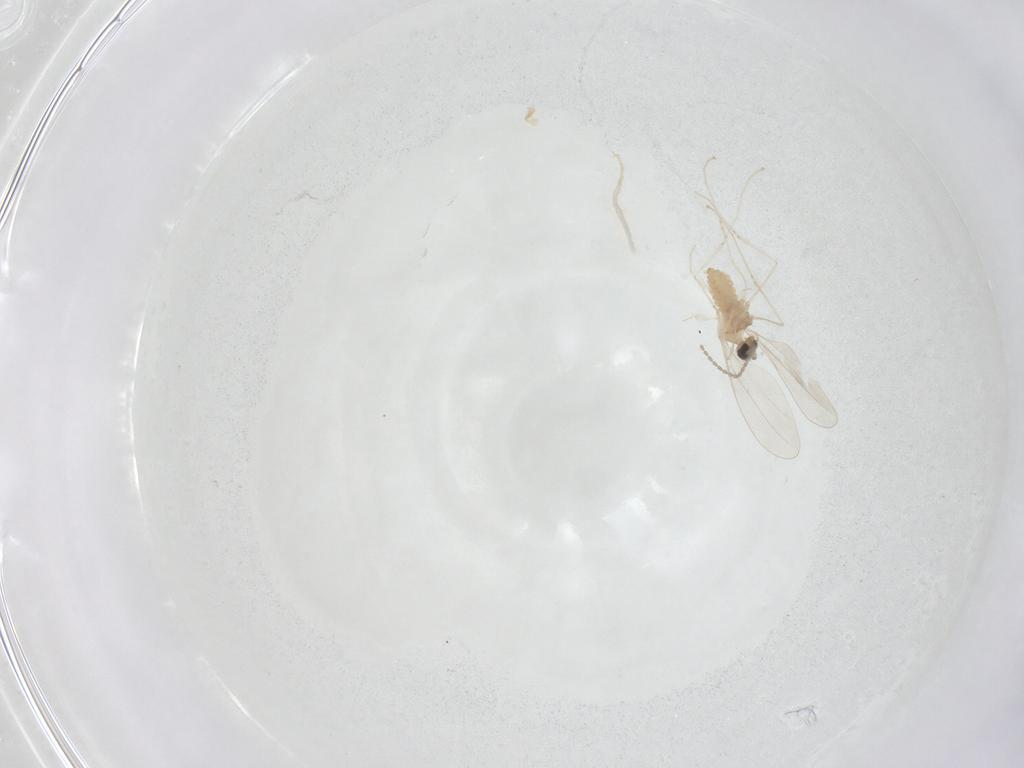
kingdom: Animalia
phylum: Arthropoda
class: Insecta
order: Diptera
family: Cecidomyiidae
